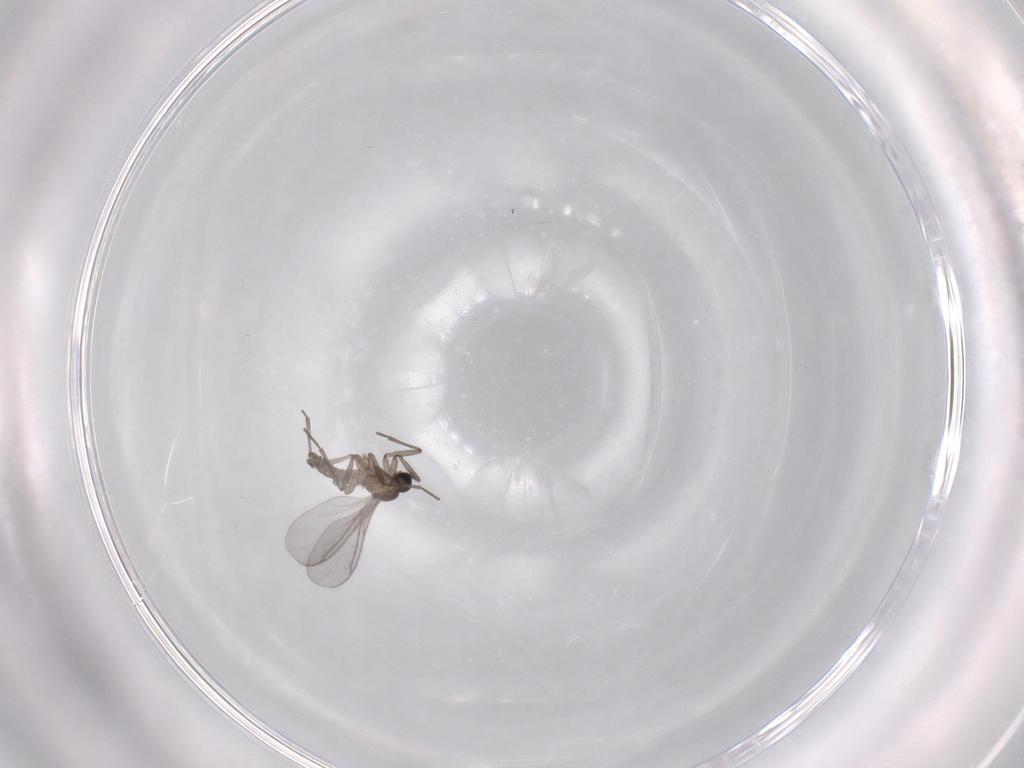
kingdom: Animalia
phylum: Arthropoda
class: Insecta
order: Diptera
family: Sciaridae
